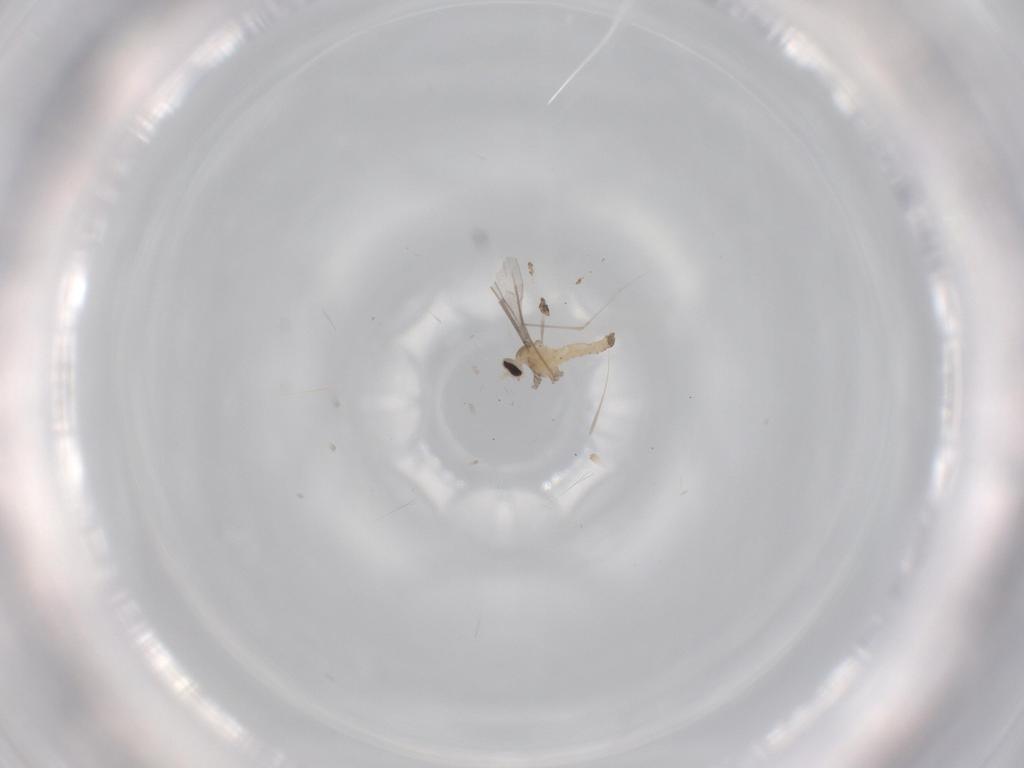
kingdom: Animalia
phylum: Arthropoda
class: Insecta
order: Diptera
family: Cecidomyiidae
